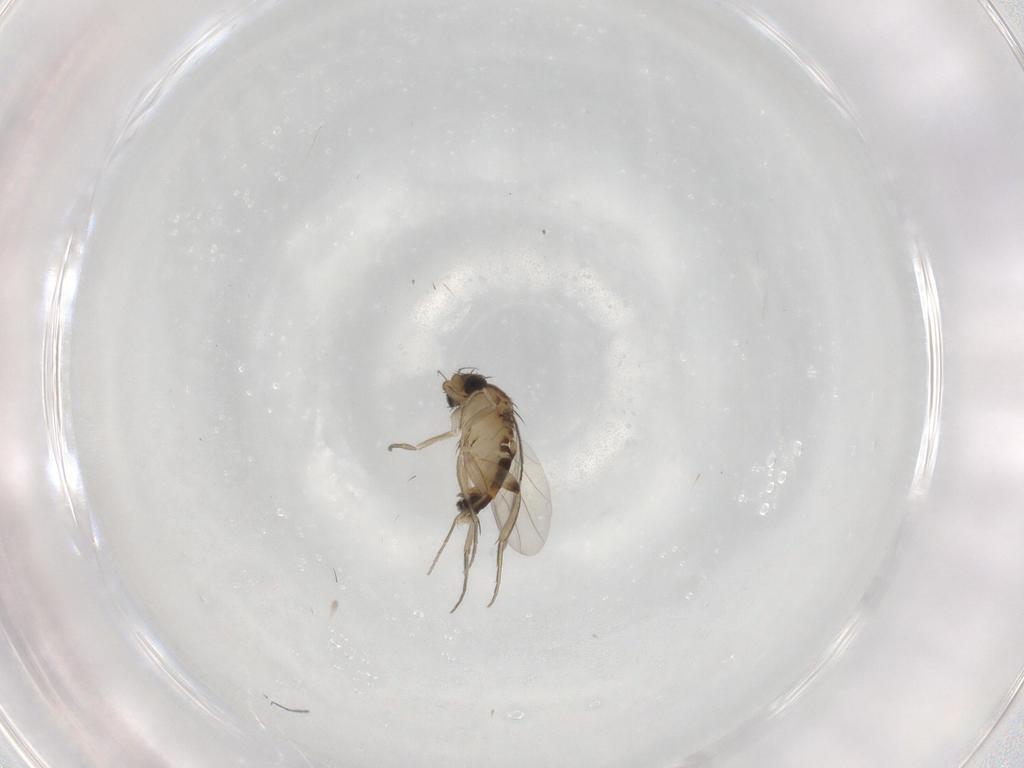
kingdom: Animalia
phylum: Arthropoda
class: Insecta
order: Diptera
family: Phoridae
